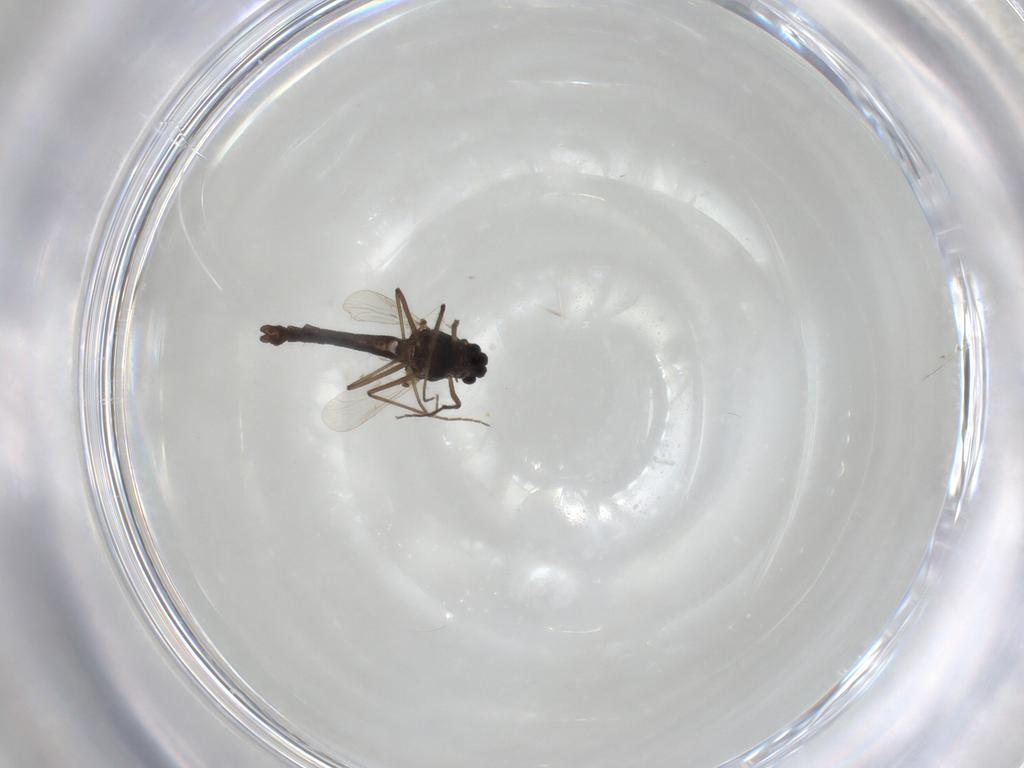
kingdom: Animalia
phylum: Arthropoda
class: Insecta
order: Diptera
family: Chironomidae
